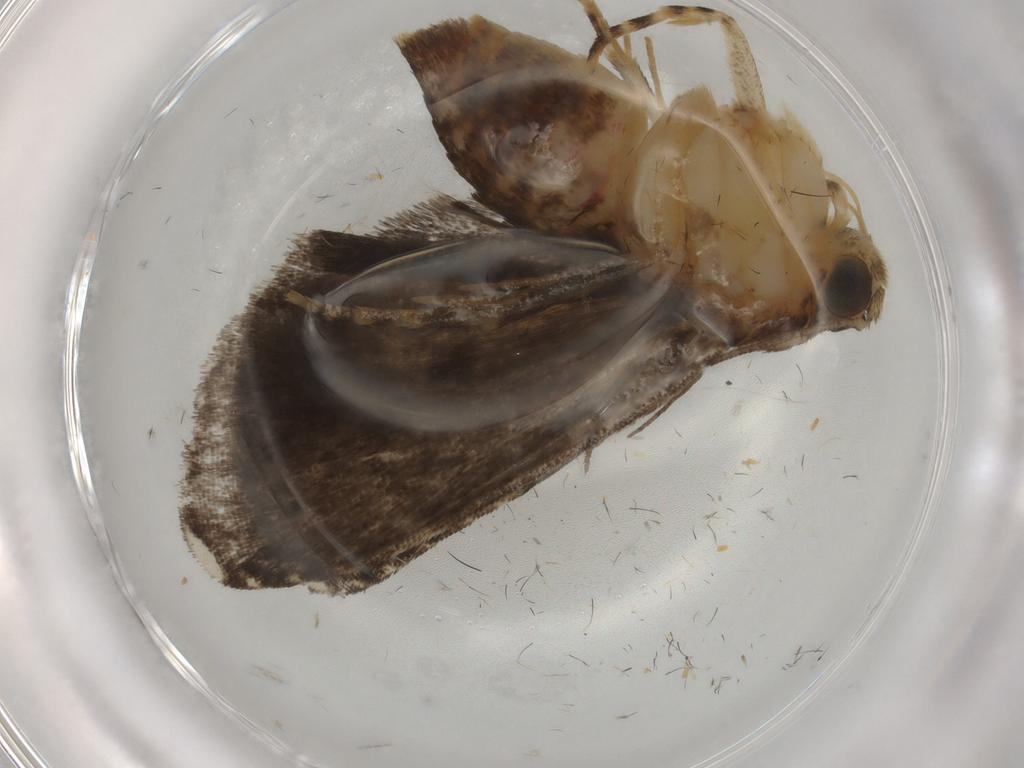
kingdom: Animalia
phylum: Arthropoda
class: Insecta
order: Lepidoptera
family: Immidae
